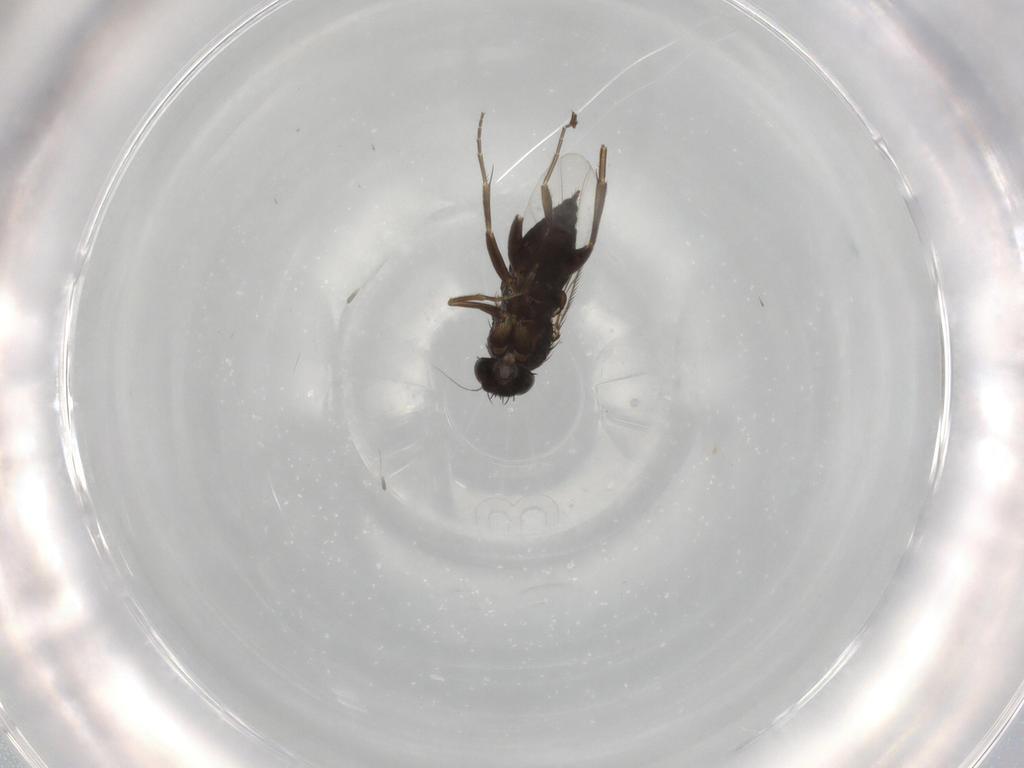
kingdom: Animalia
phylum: Arthropoda
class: Insecta
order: Diptera
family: Phoridae
